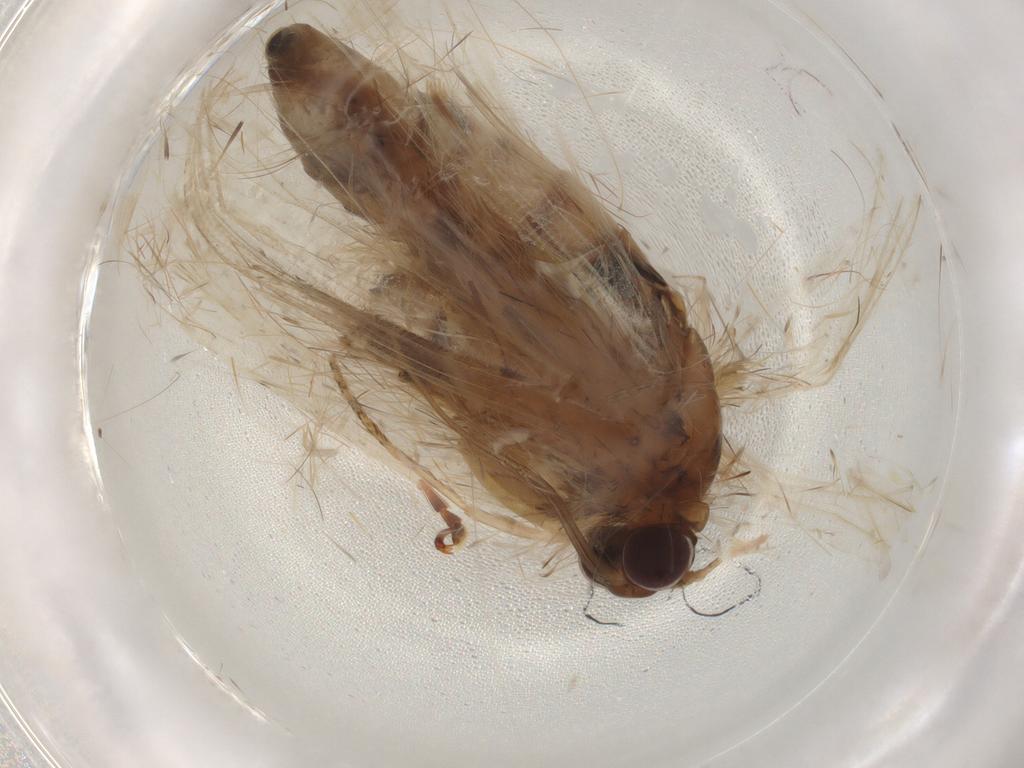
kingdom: Animalia
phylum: Arthropoda
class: Insecta
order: Lepidoptera
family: Erebidae
